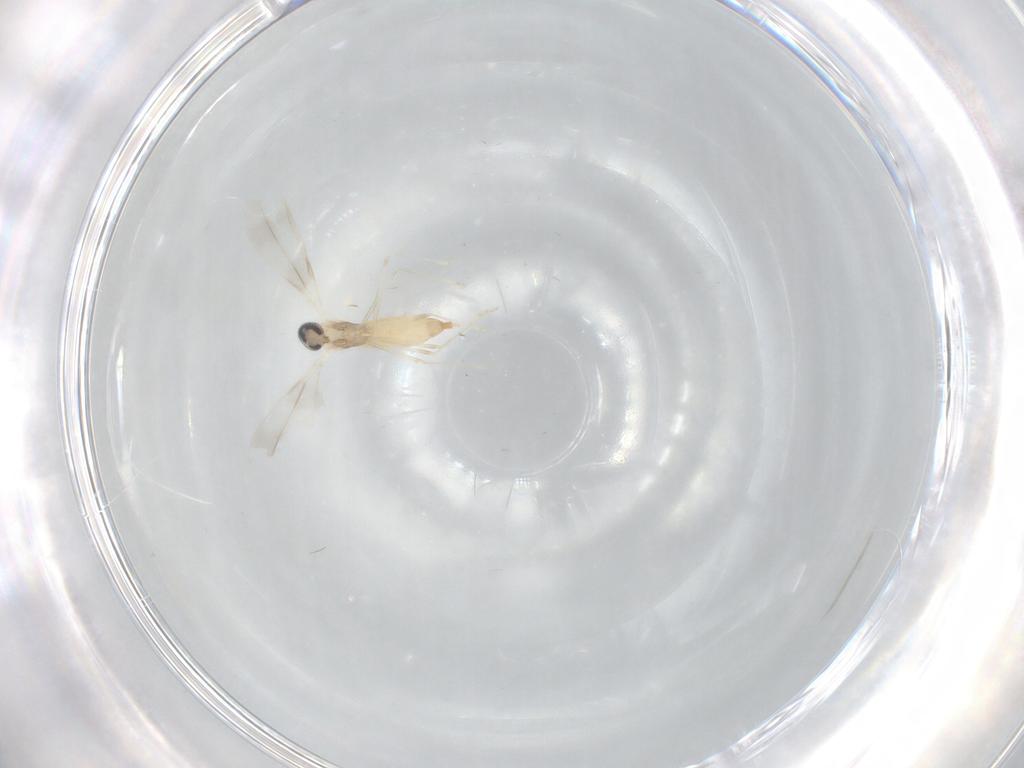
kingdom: Animalia
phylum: Arthropoda
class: Insecta
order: Diptera
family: Cecidomyiidae
